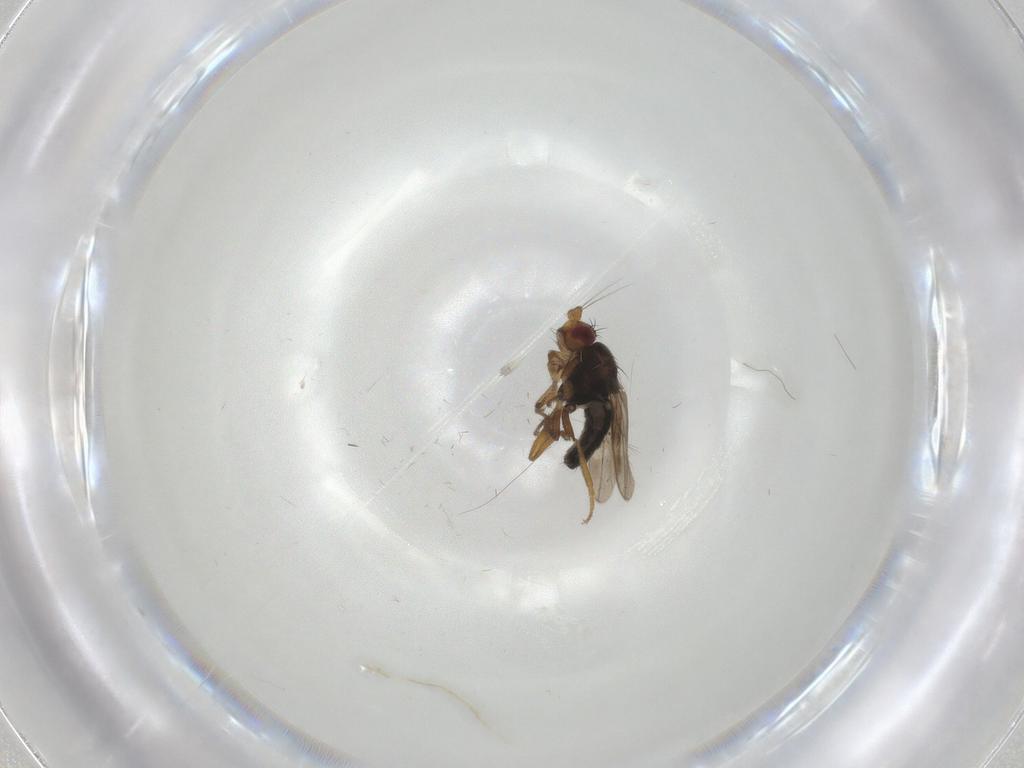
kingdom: Animalia
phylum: Arthropoda
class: Insecta
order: Diptera
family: Sphaeroceridae
